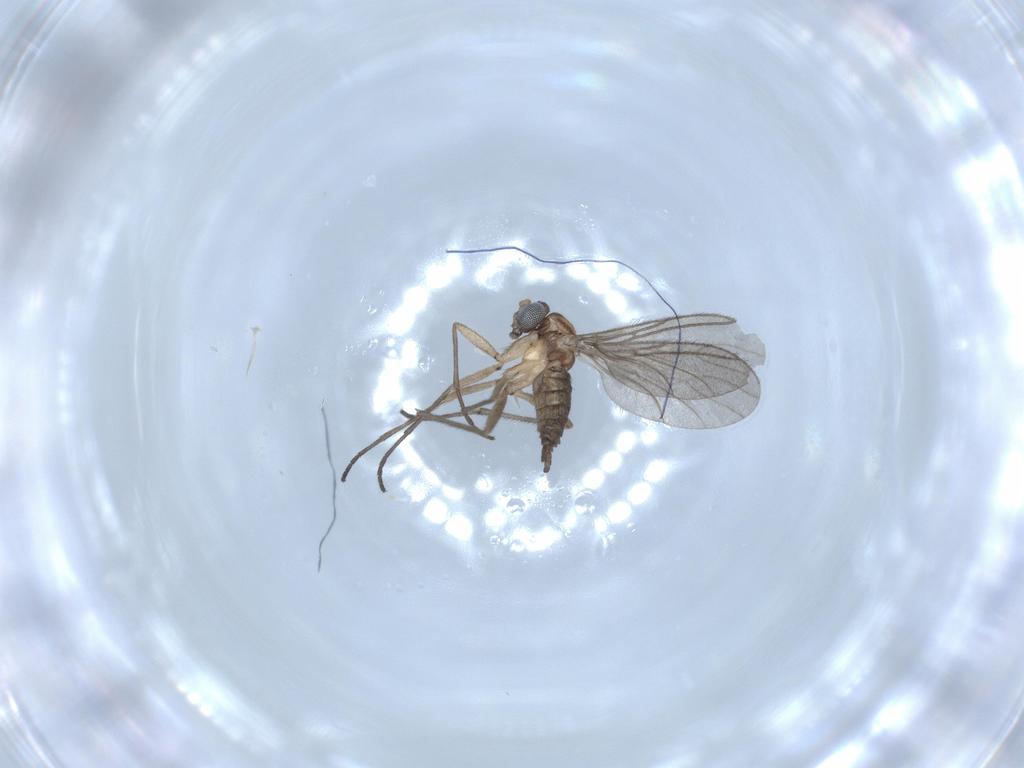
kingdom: Animalia
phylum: Arthropoda
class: Insecta
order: Diptera
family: Sciaridae
